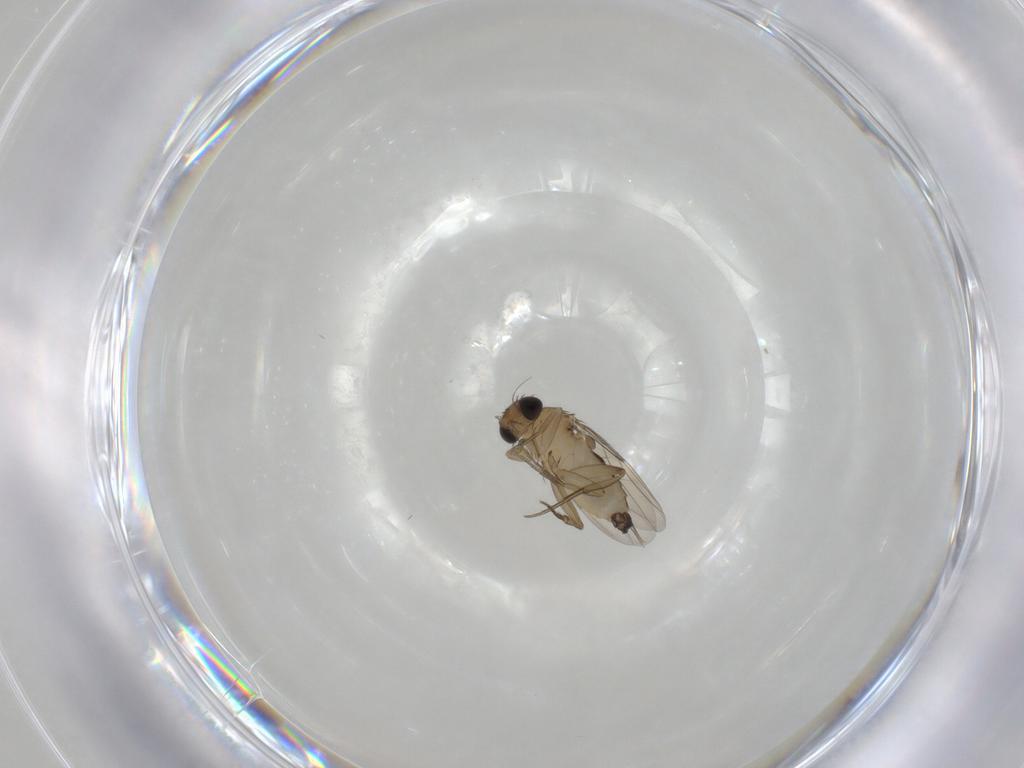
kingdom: Animalia
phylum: Arthropoda
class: Insecta
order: Diptera
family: Phoridae
